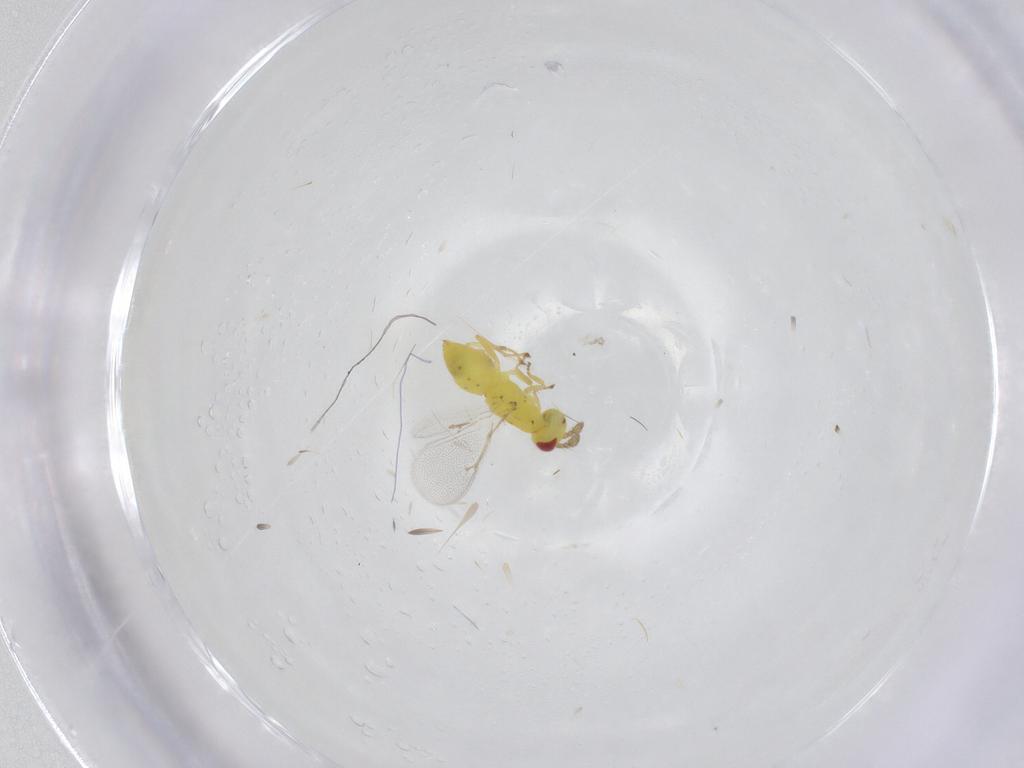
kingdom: Animalia
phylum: Arthropoda
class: Insecta
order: Hymenoptera
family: Eulophidae
